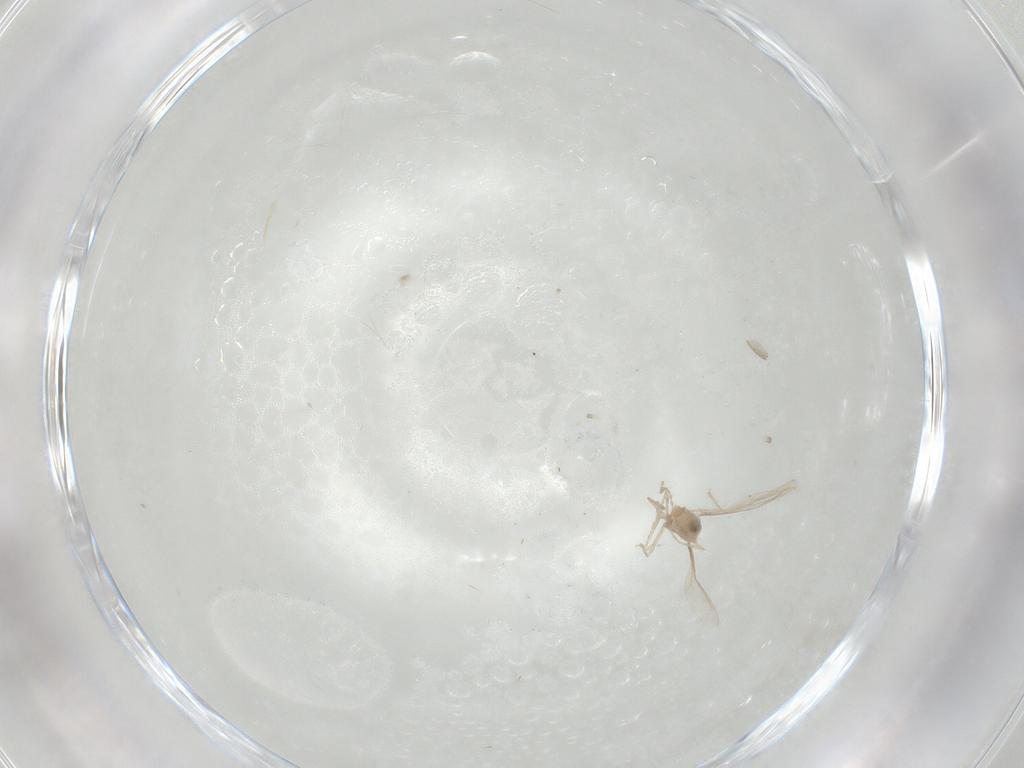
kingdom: Animalia
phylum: Arthropoda
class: Insecta
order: Diptera
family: Cecidomyiidae
